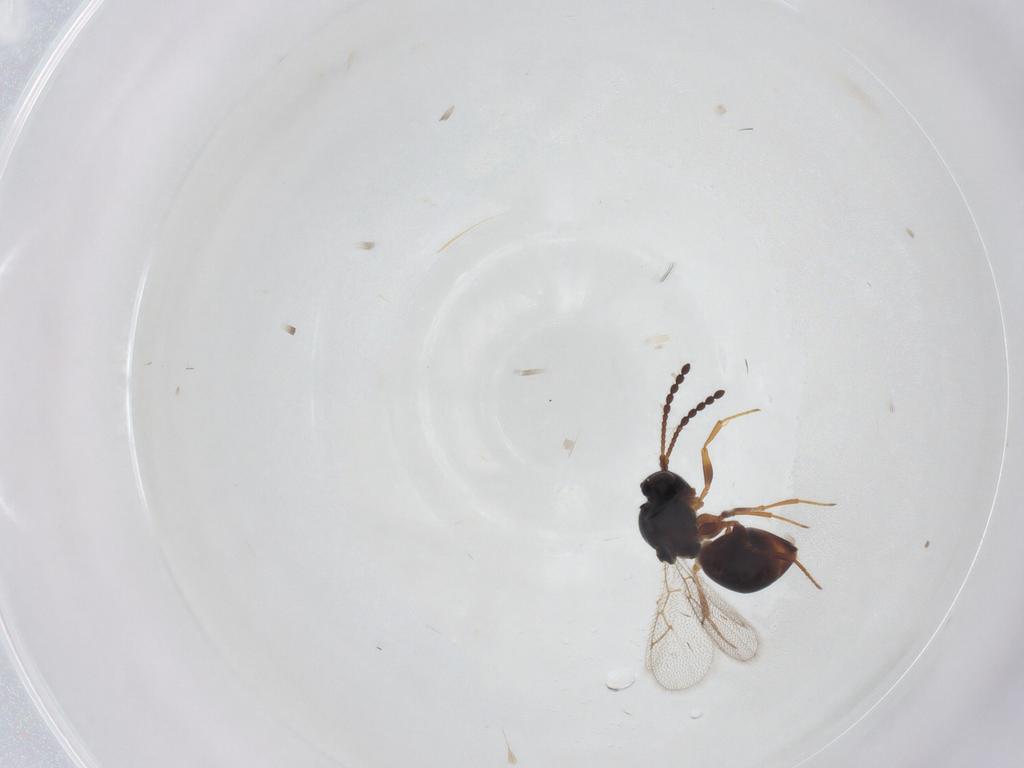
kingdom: Animalia
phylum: Arthropoda
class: Insecta
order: Hymenoptera
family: Figitidae
